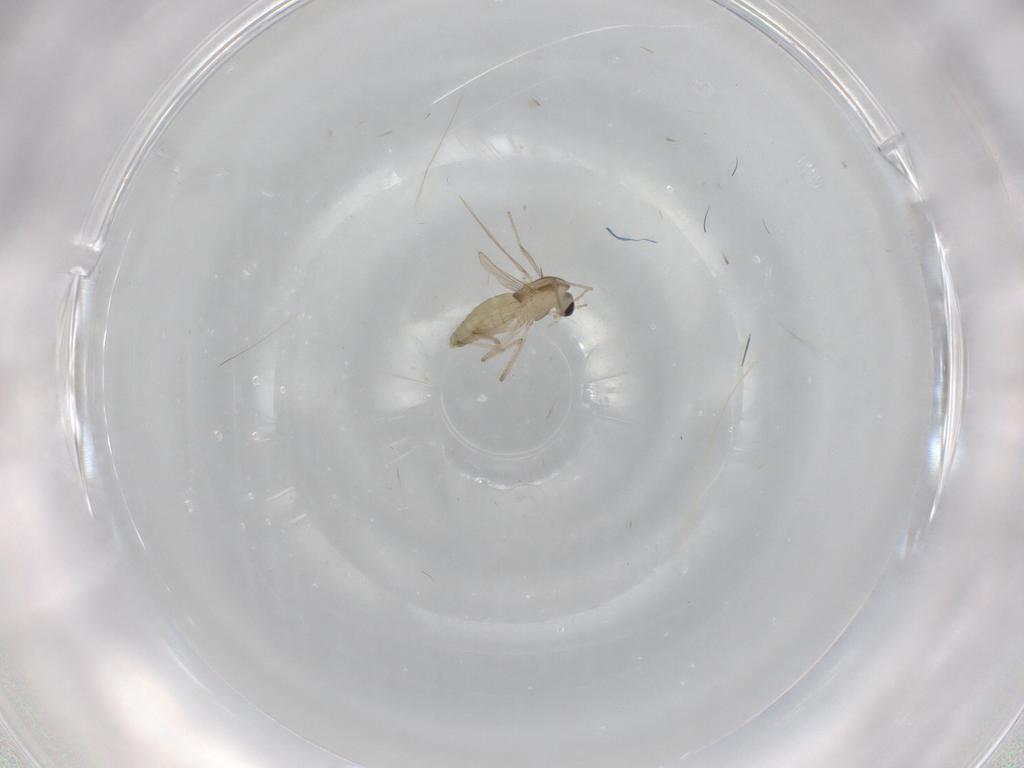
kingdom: Animalia
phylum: Arthropoda
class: Insecta
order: Diptera
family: Chironomidae
